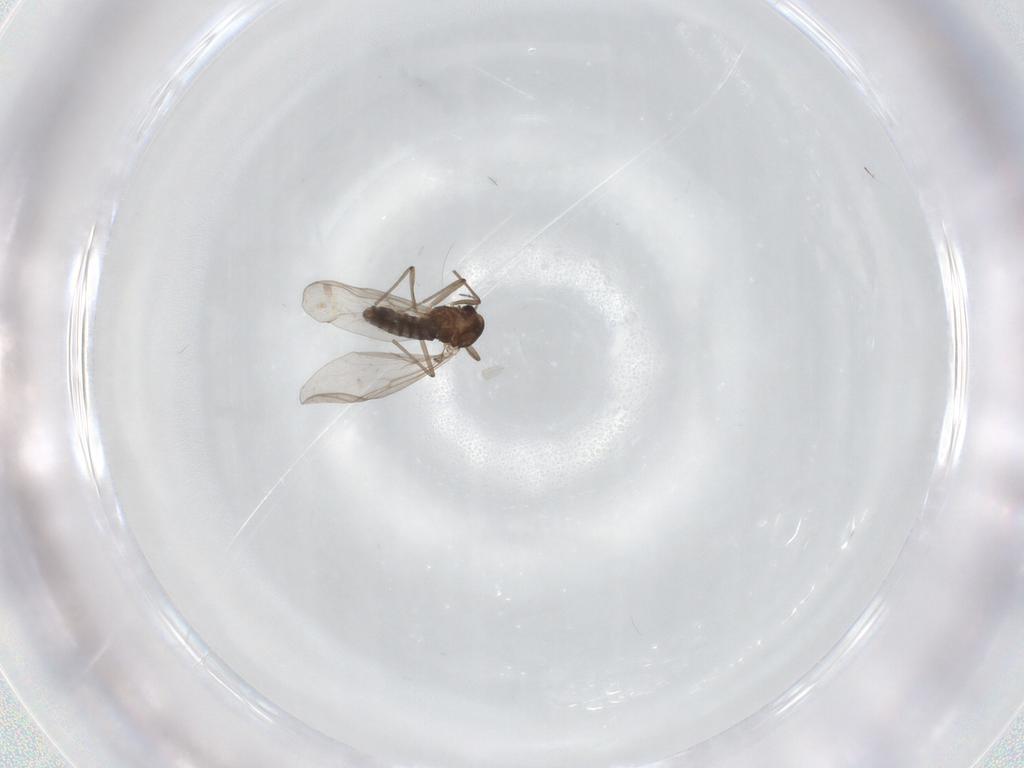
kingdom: Animalia
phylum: Arthropoda
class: Insecta
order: Diptera
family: Chironomidae
